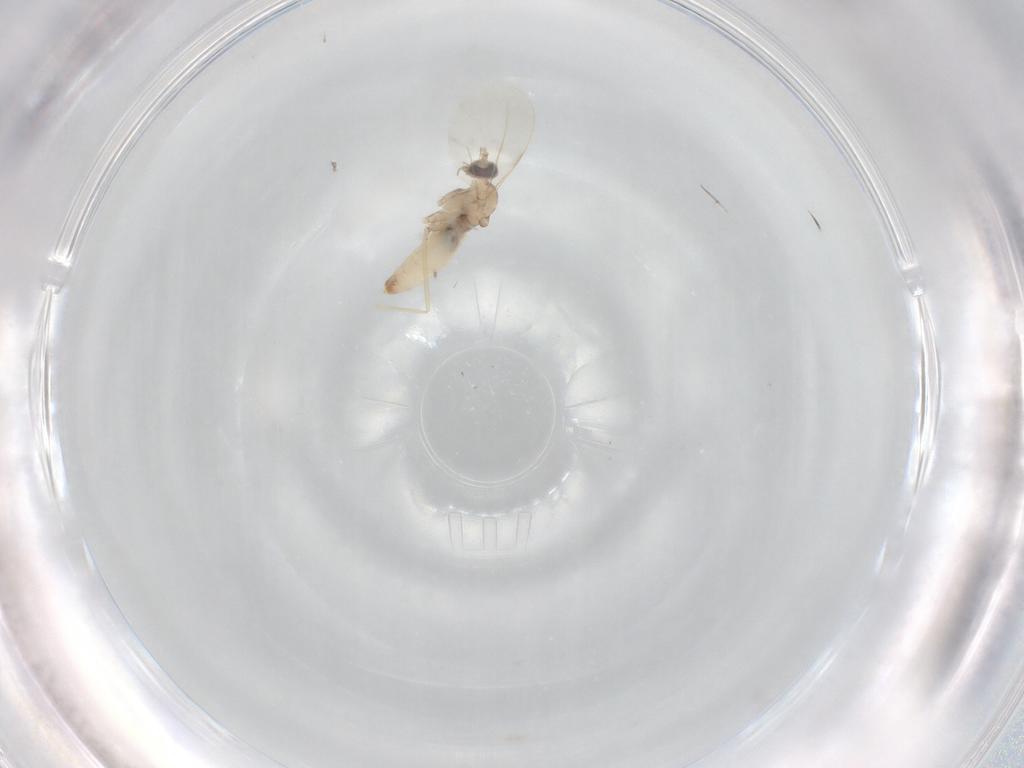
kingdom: Animalia
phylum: Arthropoda
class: Insecta
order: Diptera
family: Cecidomyiidae
